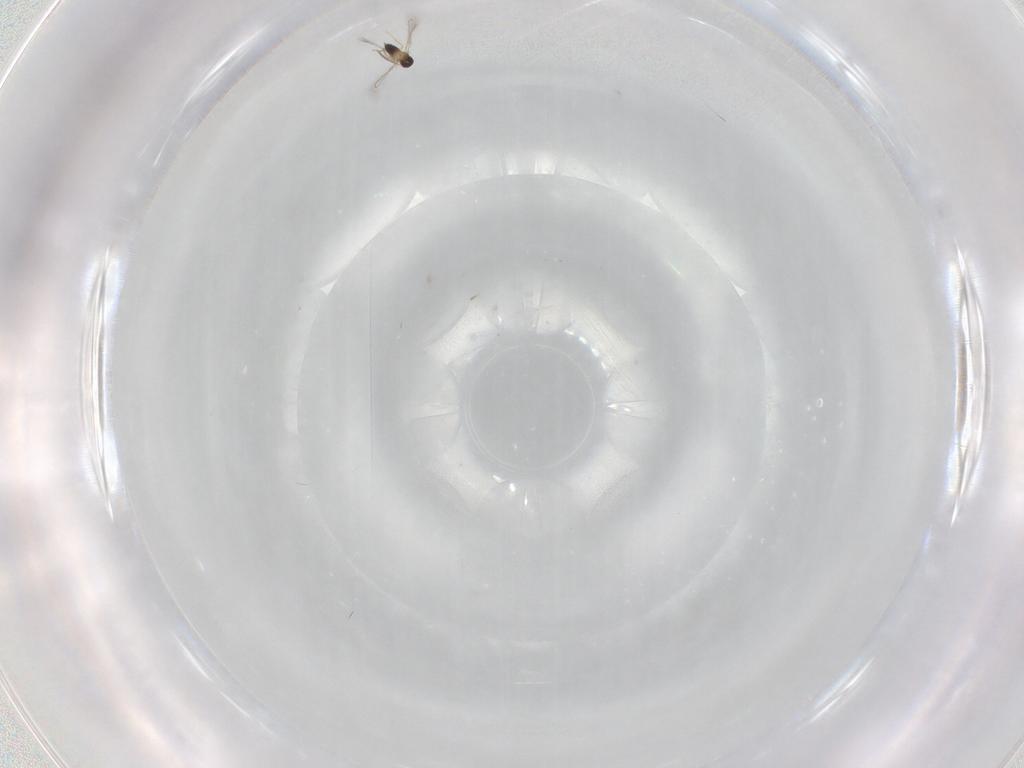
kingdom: Animalia
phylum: Arthropoda
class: Insecta
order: Hymenoptera
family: Mymaridae
